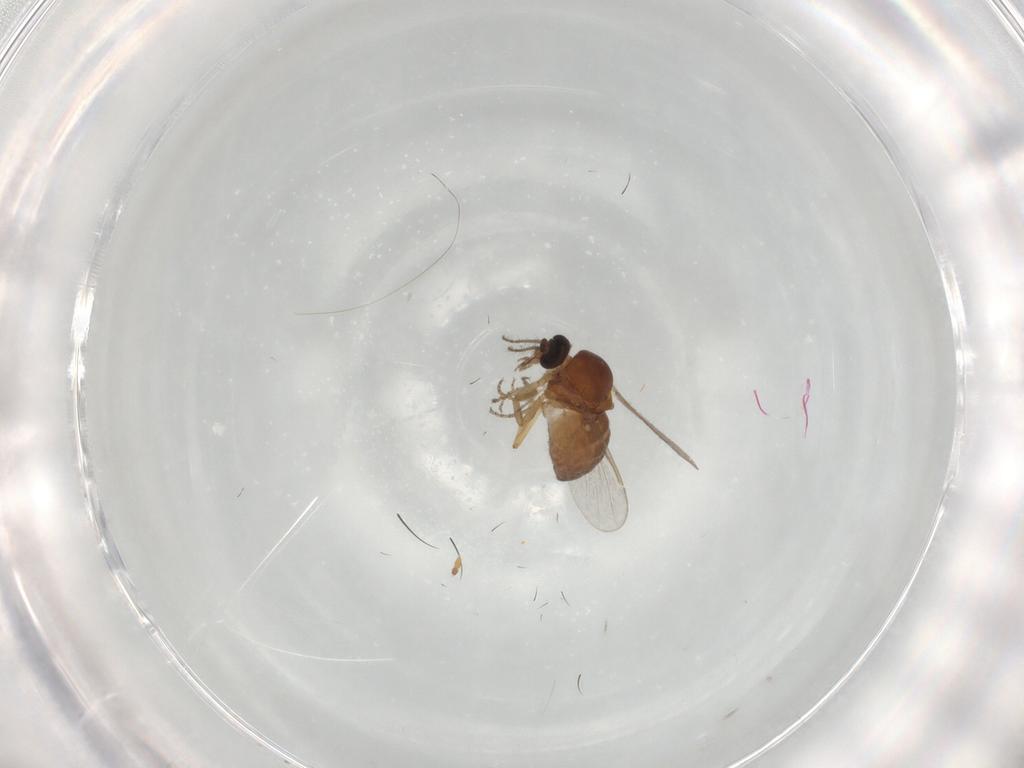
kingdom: Animalia
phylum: Arthropoda
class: Insecta
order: Diptera
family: Ceratopogonidae
